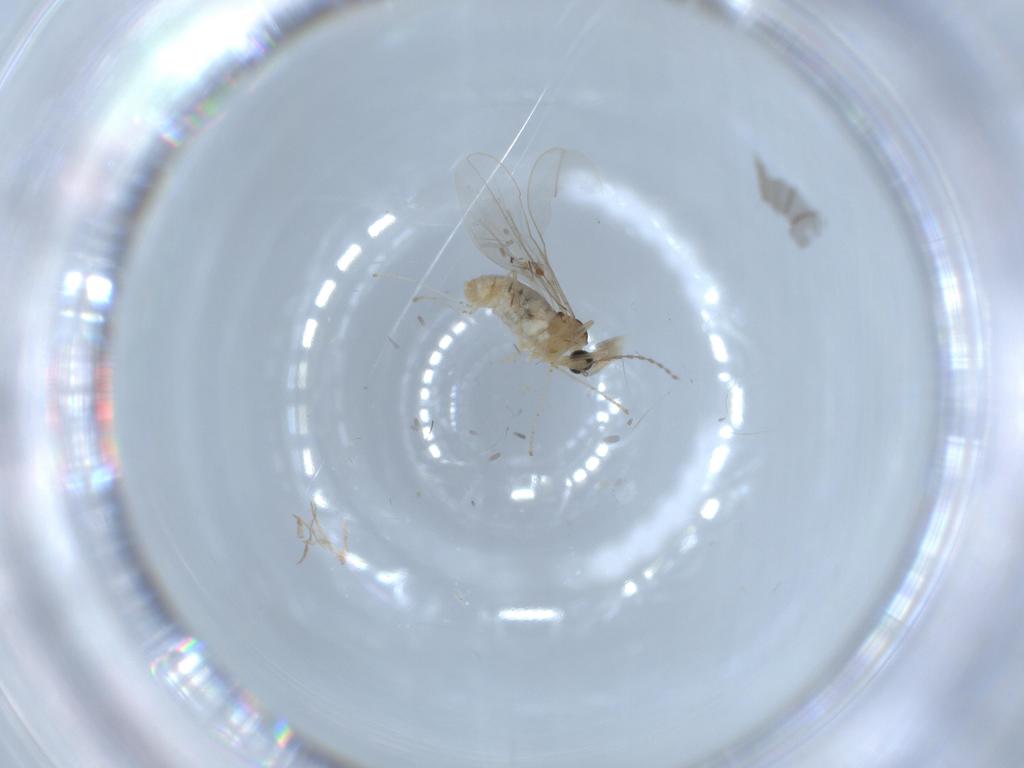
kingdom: Animalia
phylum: Arthropoda
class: Insecta
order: Diptera
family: Cecidomyiidae
